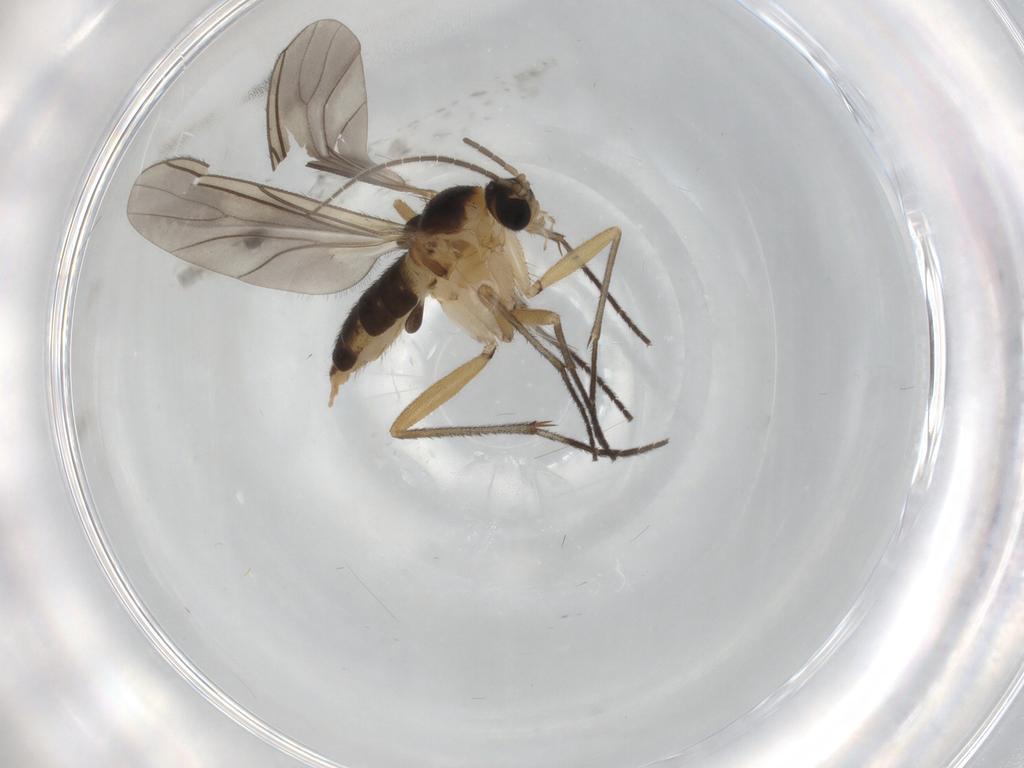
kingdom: Animalia
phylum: Arthropoda
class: Insecta
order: Diptera
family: Sciaridae
